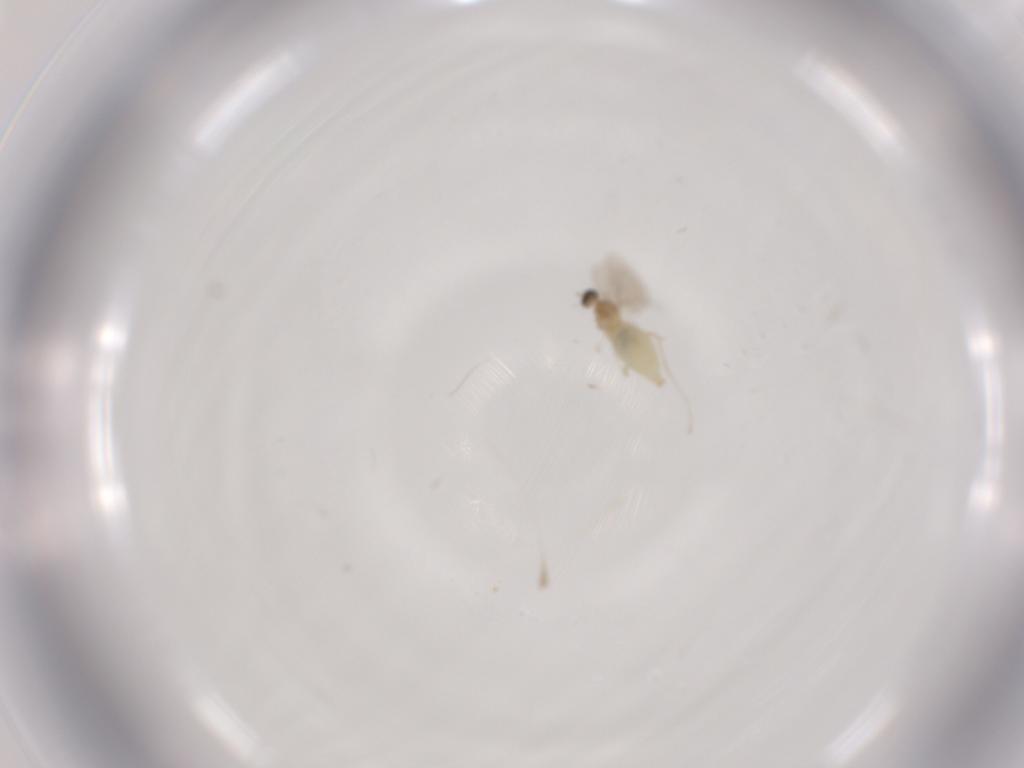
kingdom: Animalia
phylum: Arthropoda
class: Insecta
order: Diptera
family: Cecidomyiidae
